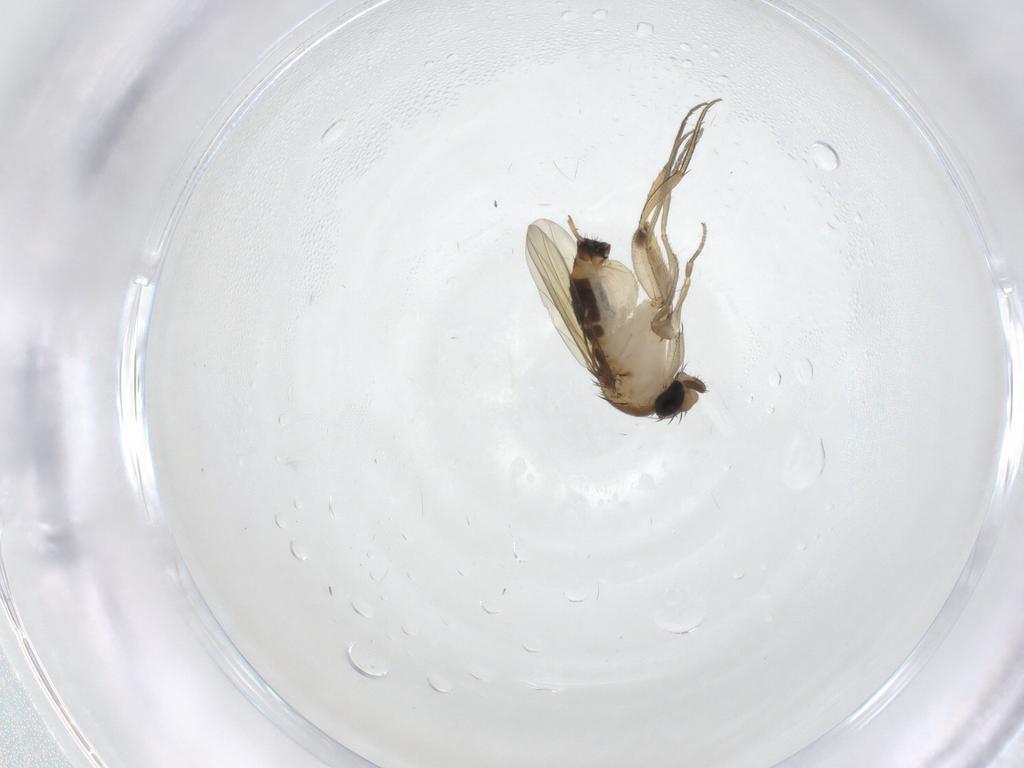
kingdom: Animalia
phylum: Arthropoda
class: Insecta
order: Diptera
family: Phoridae
